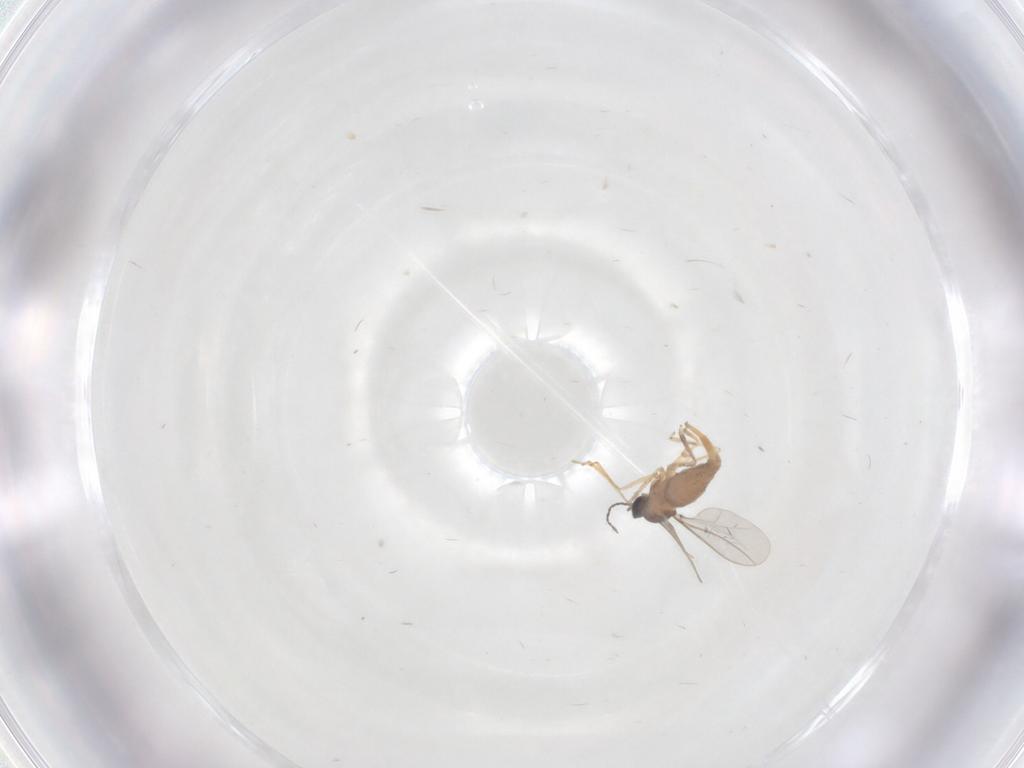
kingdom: Animalia
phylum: Arthropoda
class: Insecta
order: Diptera
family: Cecidomyiidae
